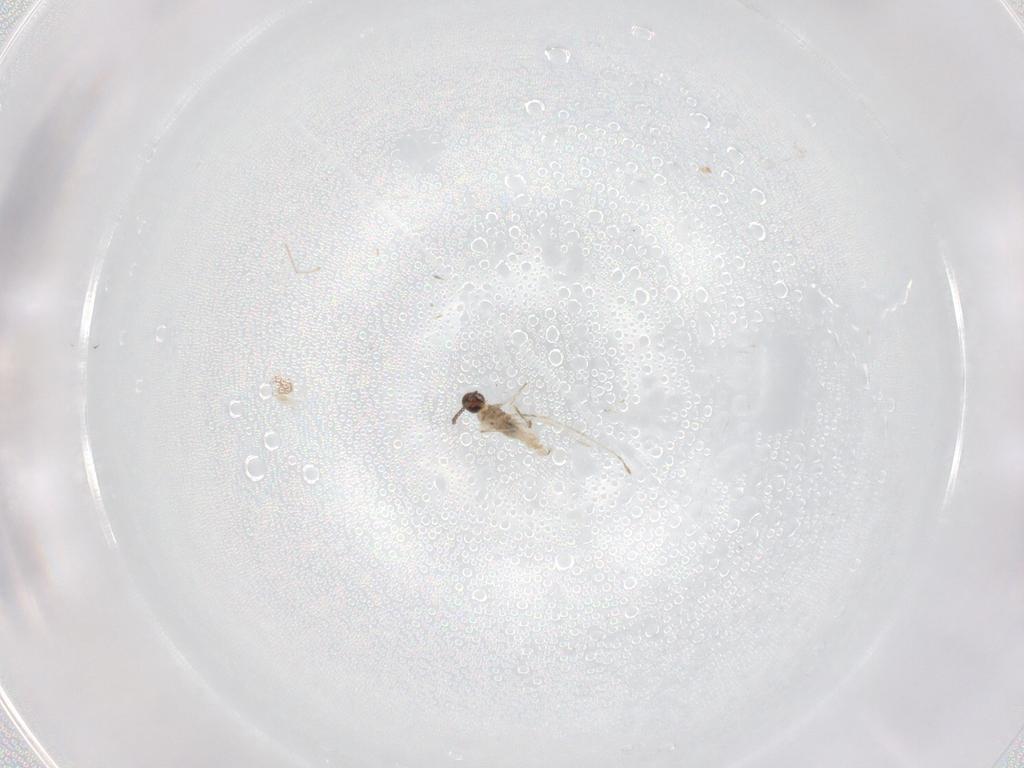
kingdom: Animalia
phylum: Arthropoda
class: Insecta
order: Diptera
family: Cecidomyiidae
